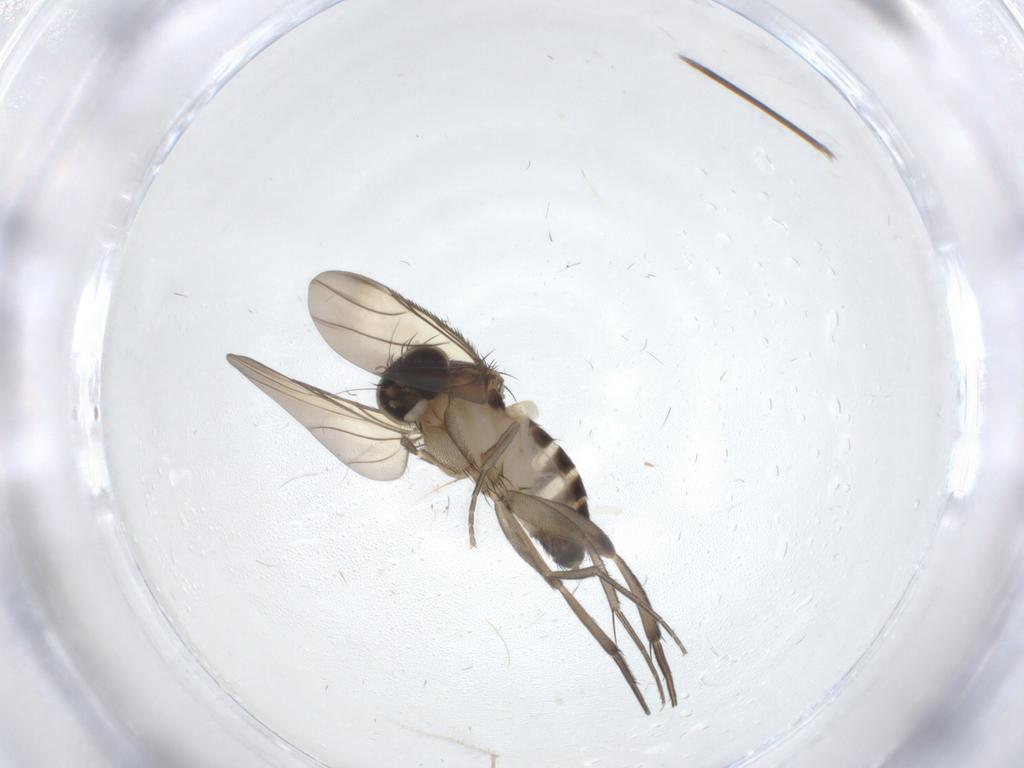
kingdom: Animalia
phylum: Arthropoda
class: Insecta
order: Diptera
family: Phoridae
